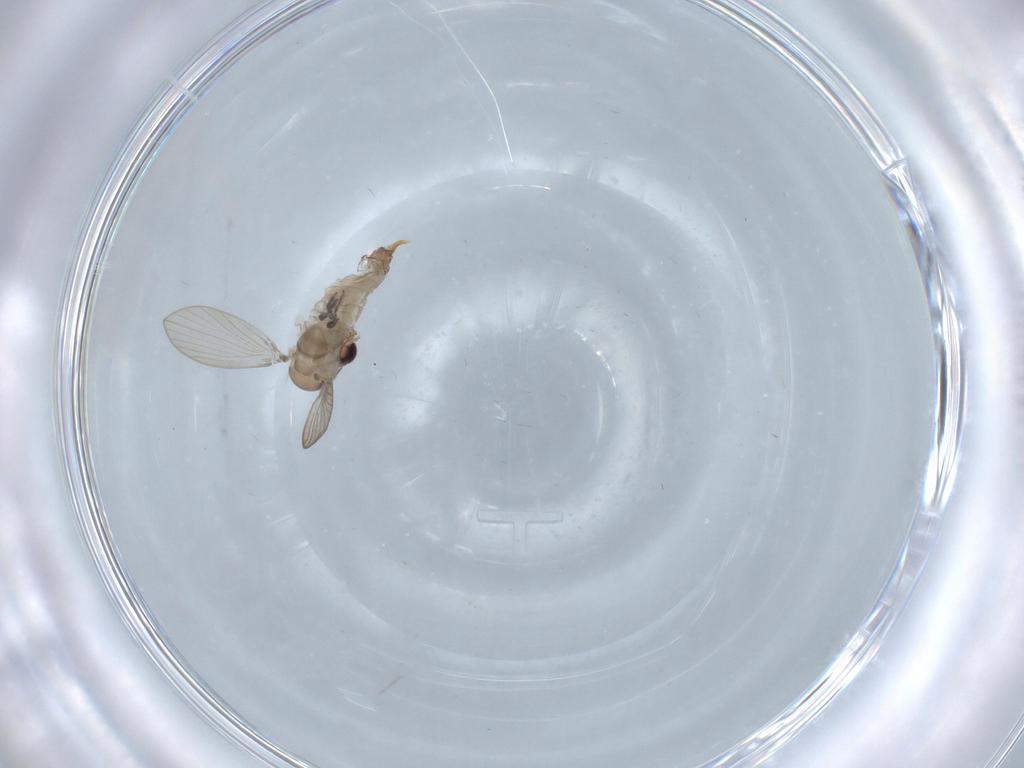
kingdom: Animalia
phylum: Arthropoda
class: Insecta
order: Diptera
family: Psychodidae
